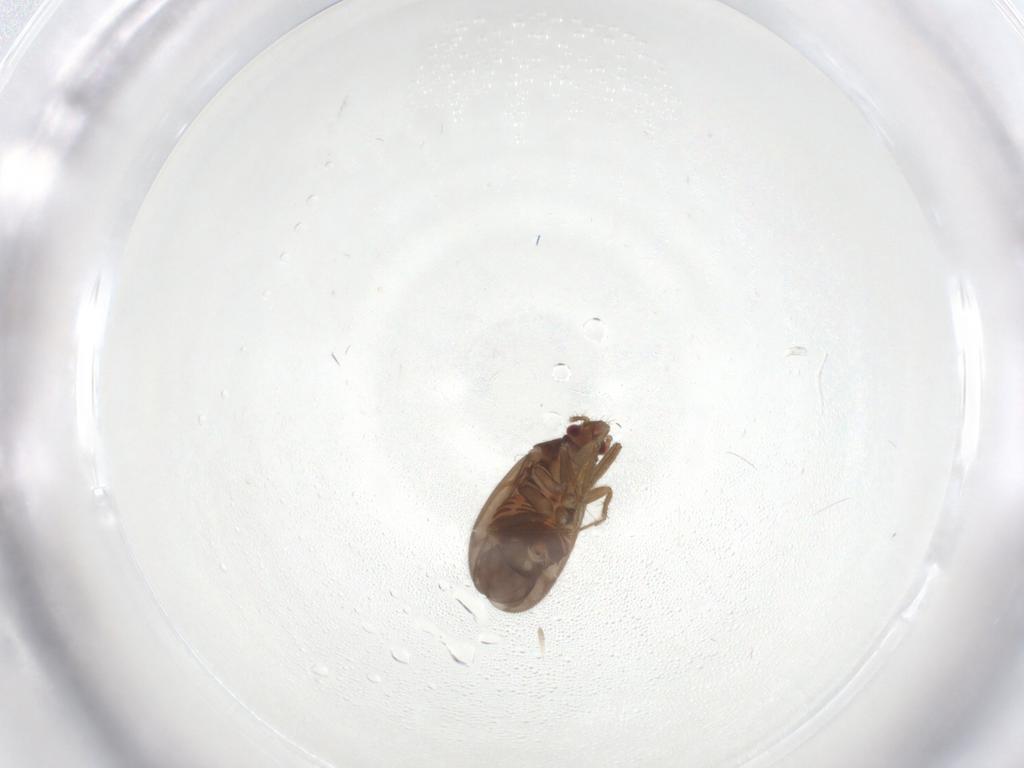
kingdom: Animalia
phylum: Arthropoda
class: Insecta
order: Hemiptera
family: Ceratocombidae
